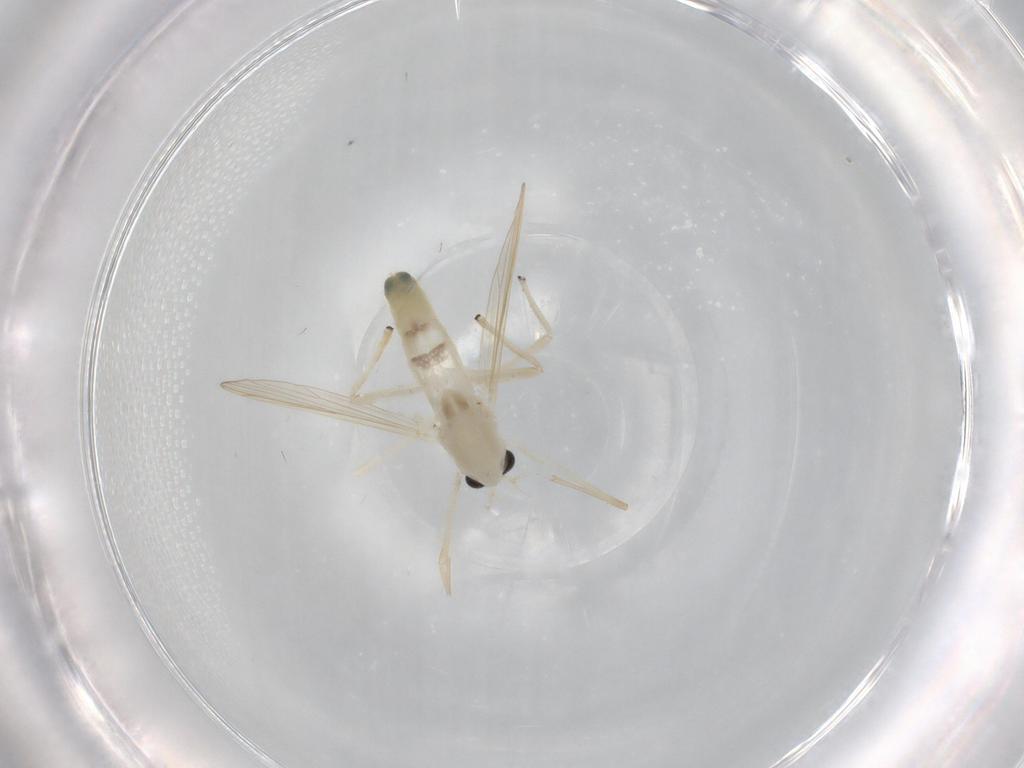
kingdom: Animalia
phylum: Arthropoda
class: Insecta
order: Diptera
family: Chironomidae
